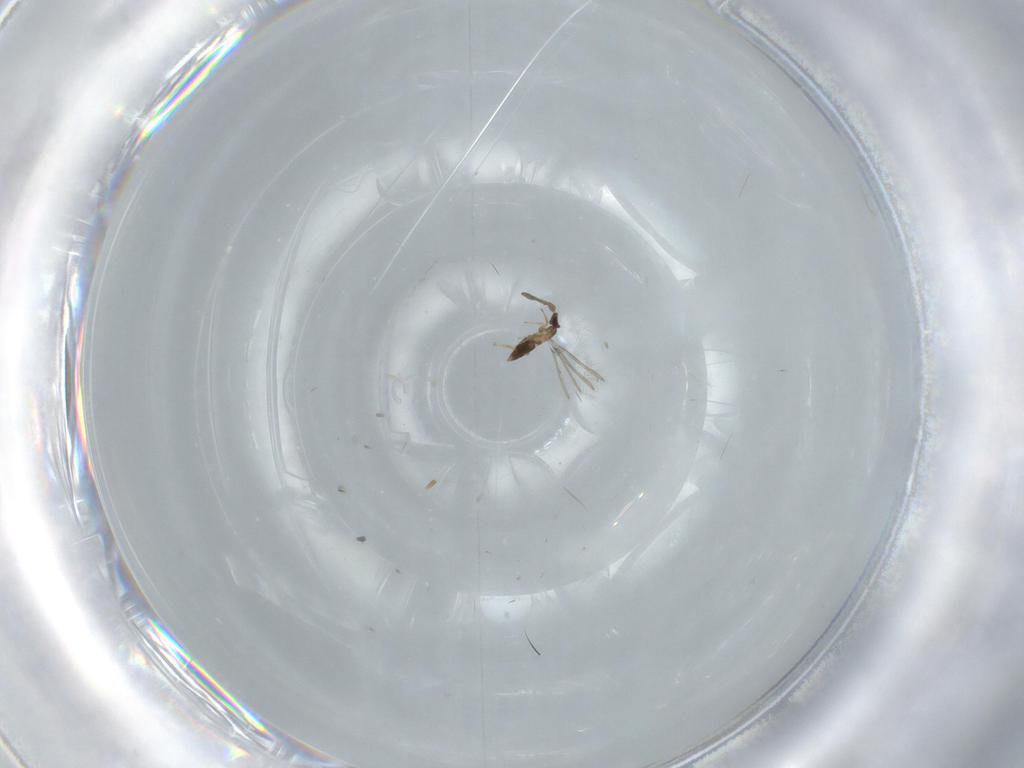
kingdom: Animalia
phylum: Arthropoda
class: Insecta
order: Hymenoptera
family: Mymaridae
